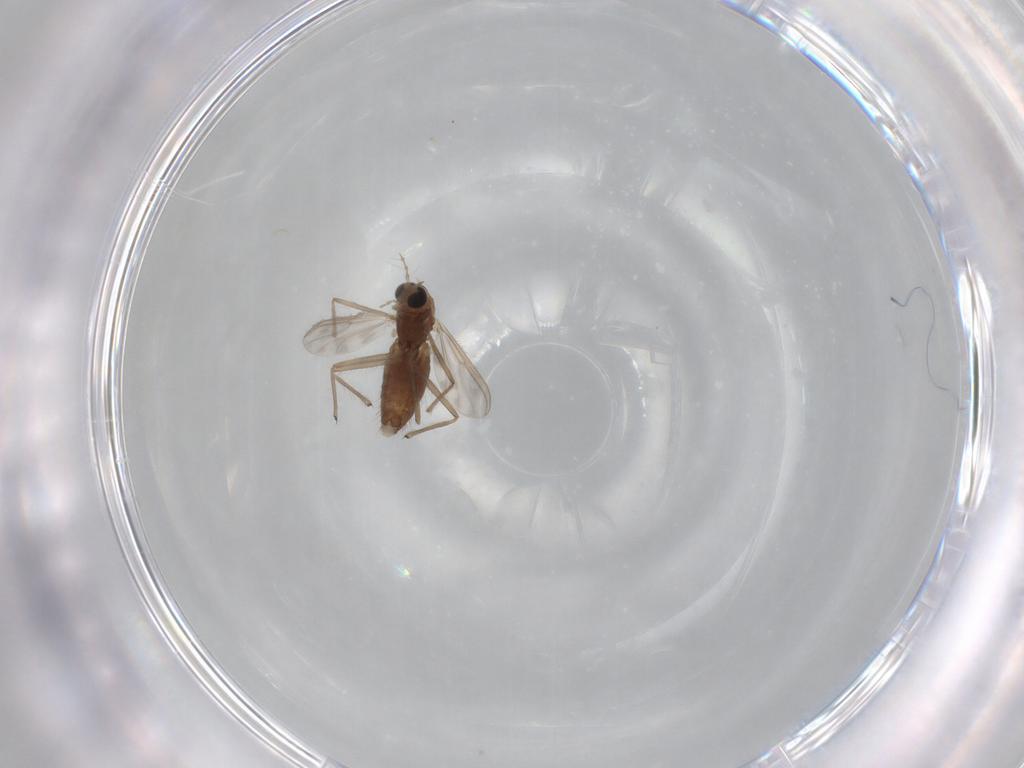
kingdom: Animalia
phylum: Arthropoda
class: Insecta
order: Diptera
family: Chironomidae
